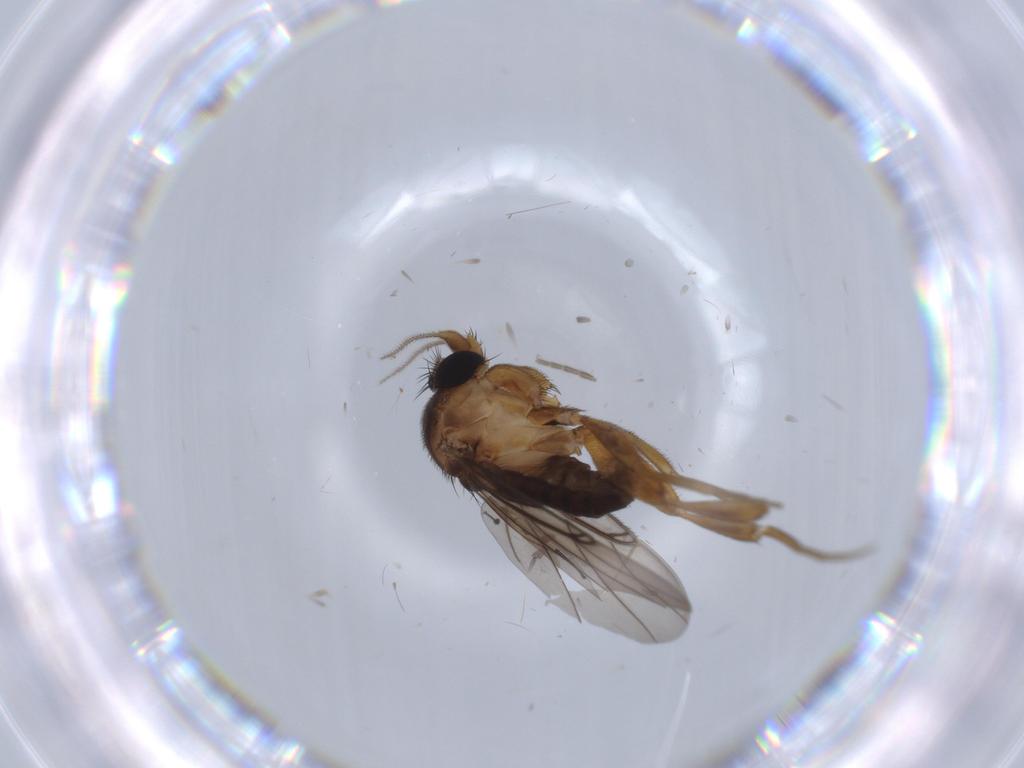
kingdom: Animalia
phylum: Arthropoda
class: Insecta
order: Diptera
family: Phoridae
